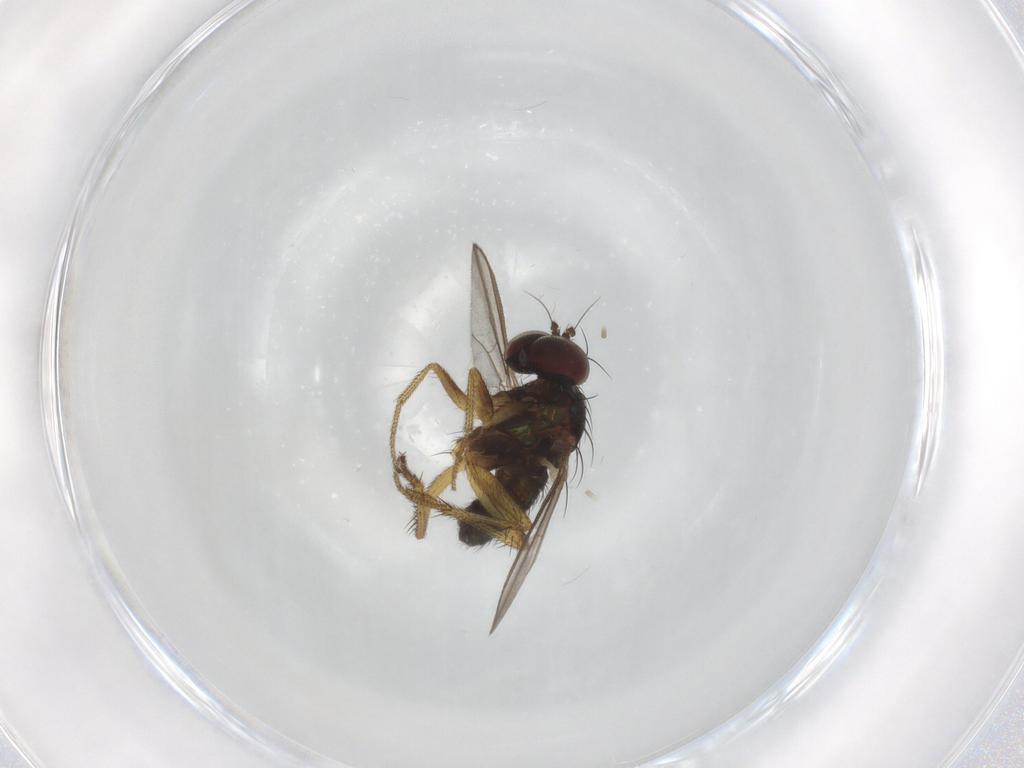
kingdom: Animalia
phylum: Arthropoda
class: Insecta
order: Diptera
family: Dolichopodidae
